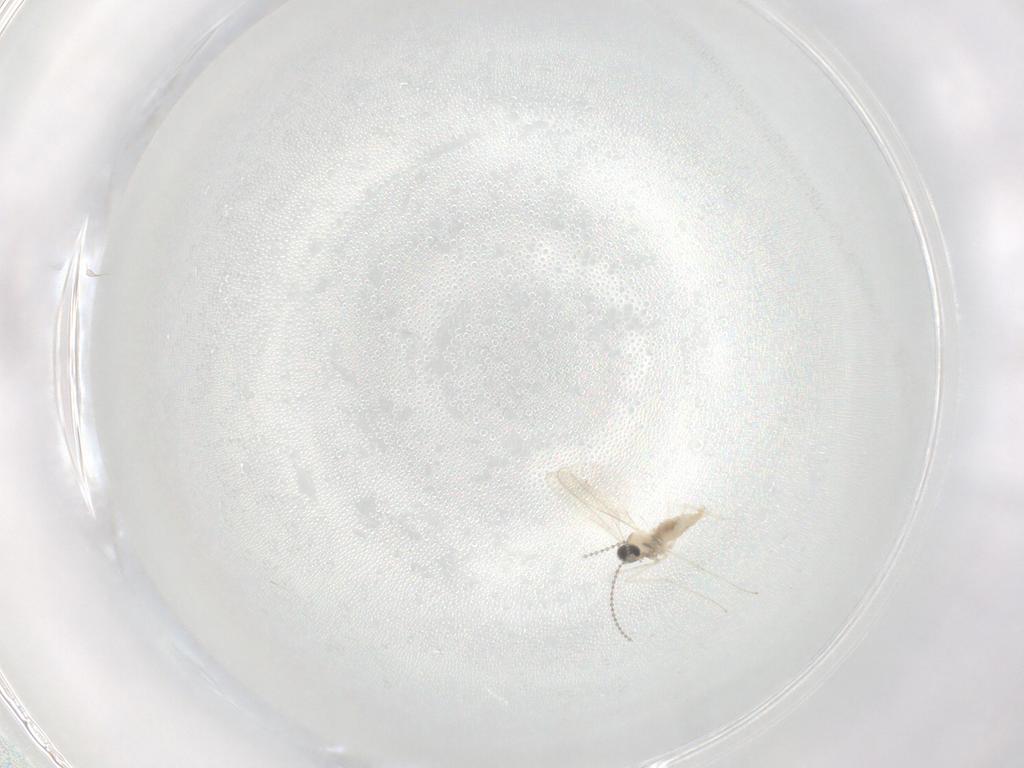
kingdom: Animalia
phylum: Arthropoda
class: Insecta
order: Diptera
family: Cecidomyiidae
